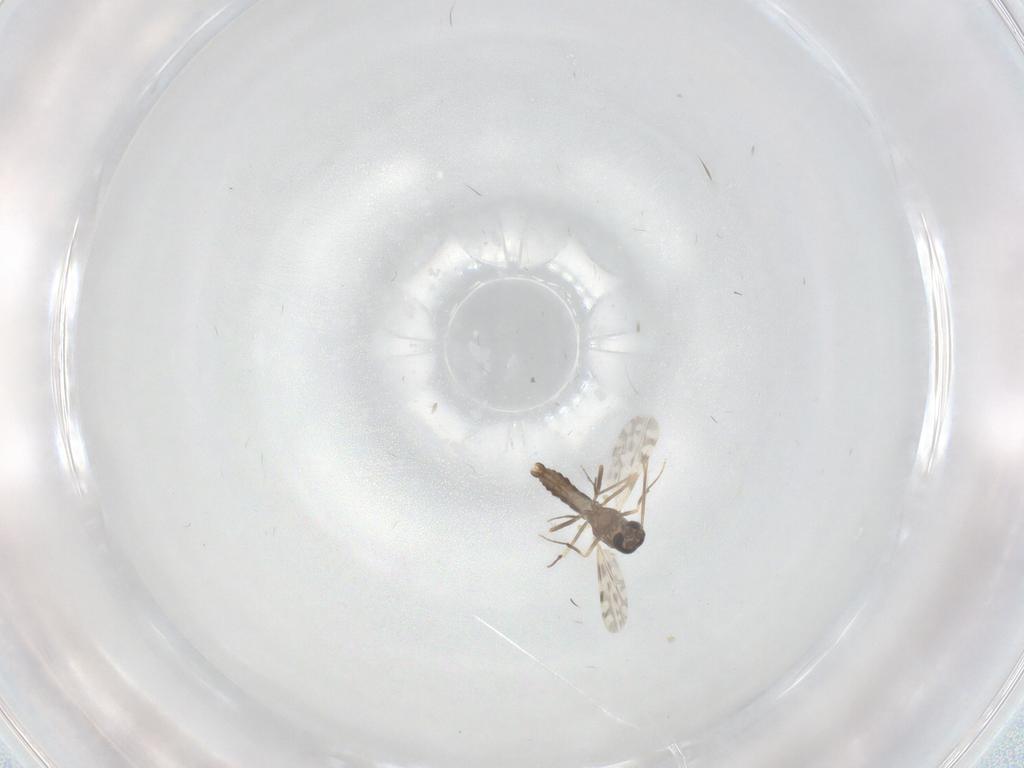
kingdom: Animalia
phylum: Arthropoda
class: Insecta
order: Diptera
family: Ceratopogonidae
